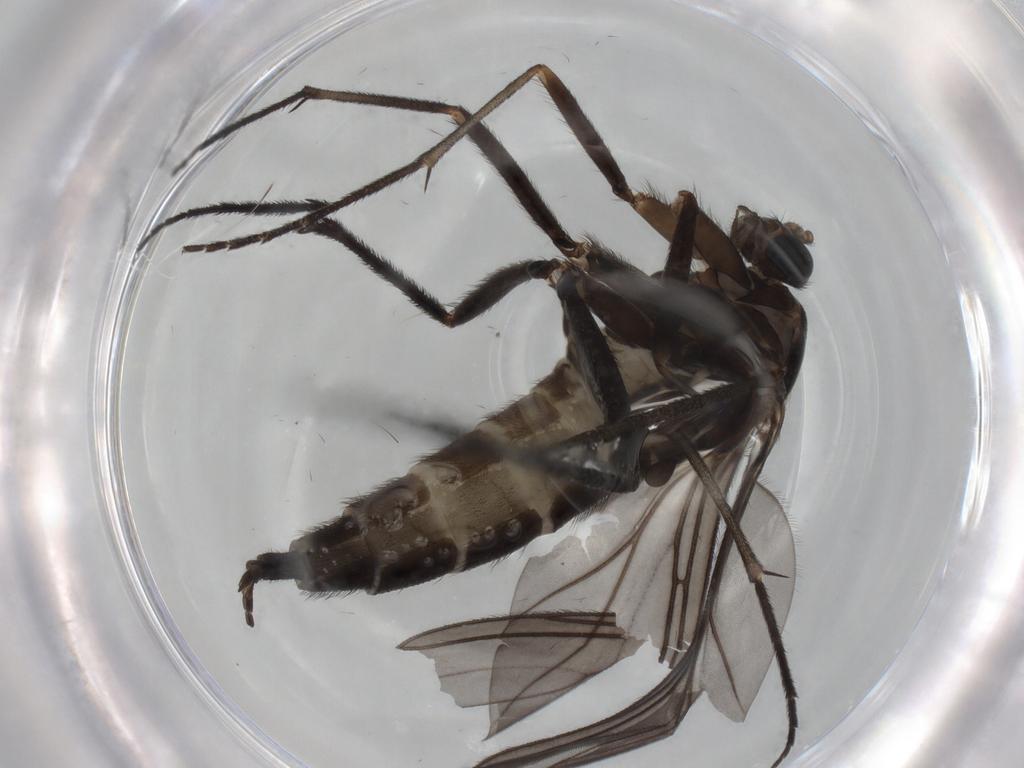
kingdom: Animalia
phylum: Arthropoda
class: Insecta
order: Diptera
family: Sciaridae
